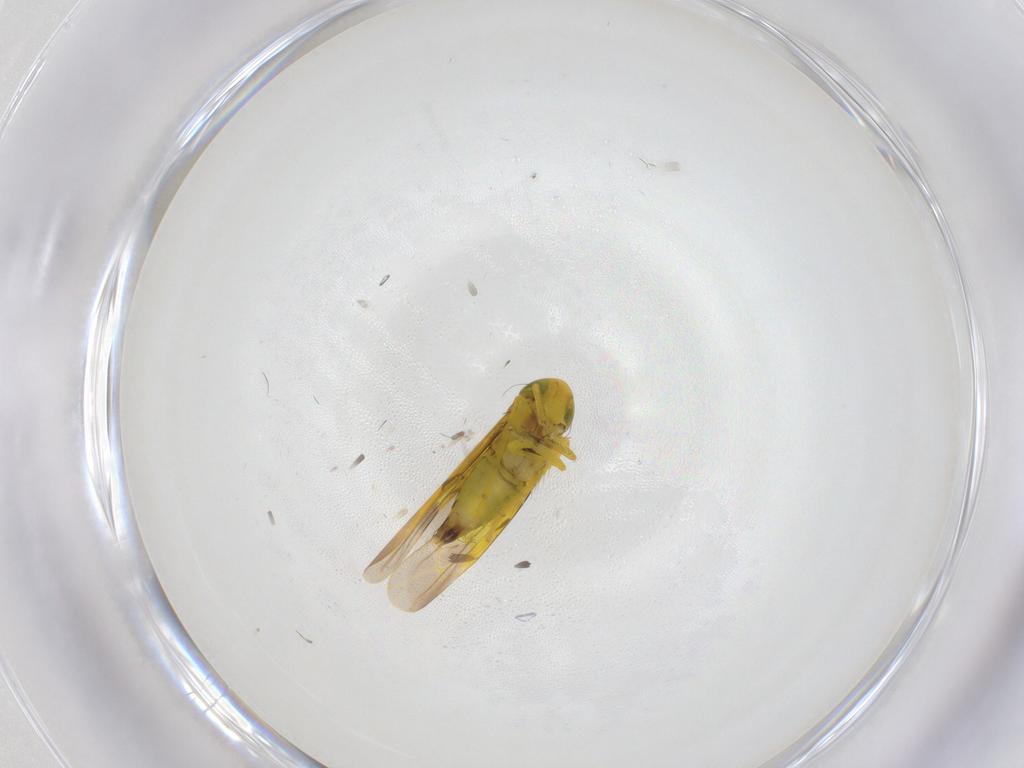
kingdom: Animalia
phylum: Arthropoda
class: Insecta
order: Hemiptera
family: Cicadellidae
